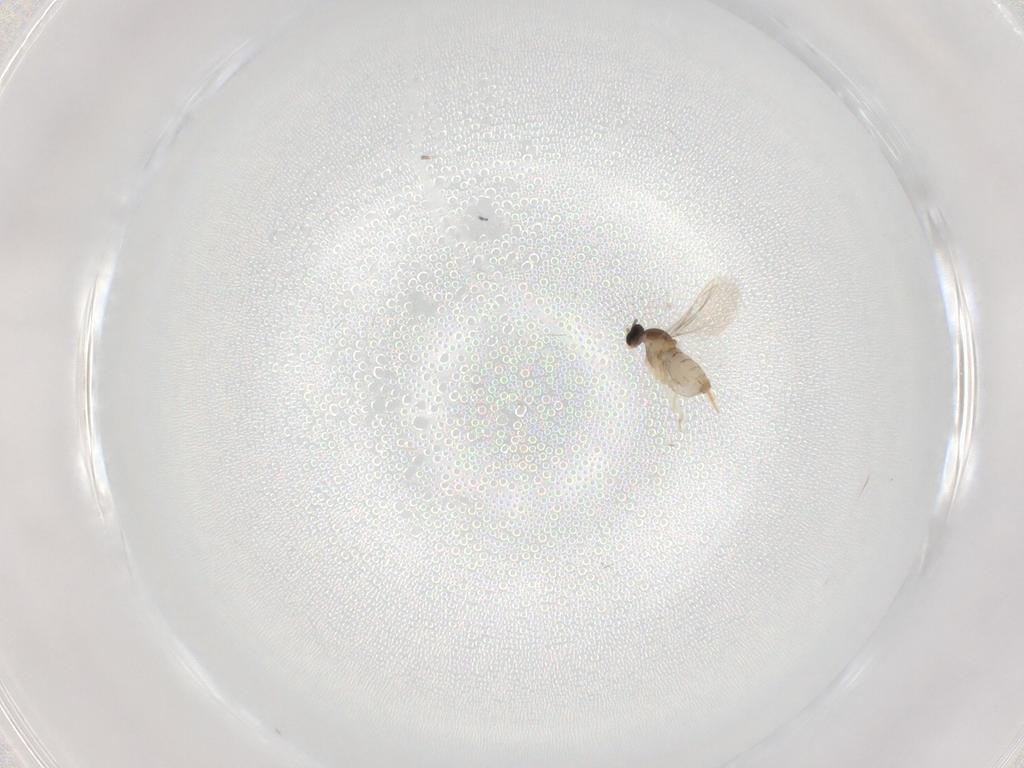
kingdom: Animalia
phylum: Arthropoda
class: Insecta
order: Diptera
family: Cecidomyiidae
